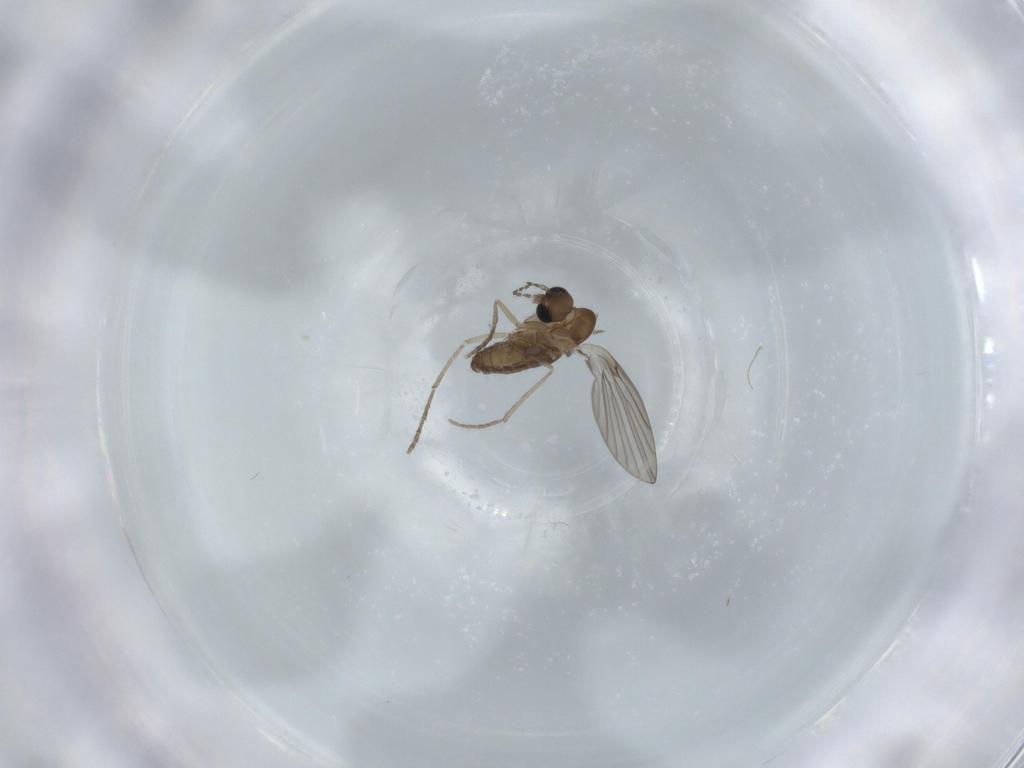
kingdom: Animalia
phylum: Arthropoda
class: Insecta
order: Diptera
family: Psychodidae
